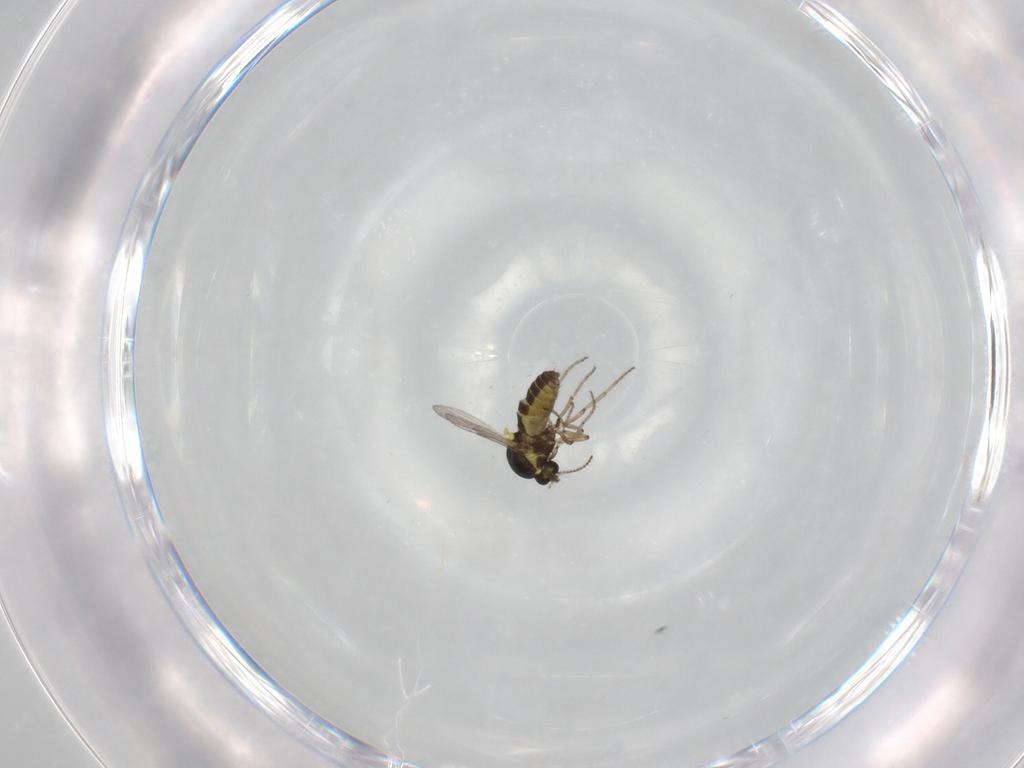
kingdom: Animalia
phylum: Arthropoda
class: Insecta
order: Diptera
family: Ceratopogonidae
